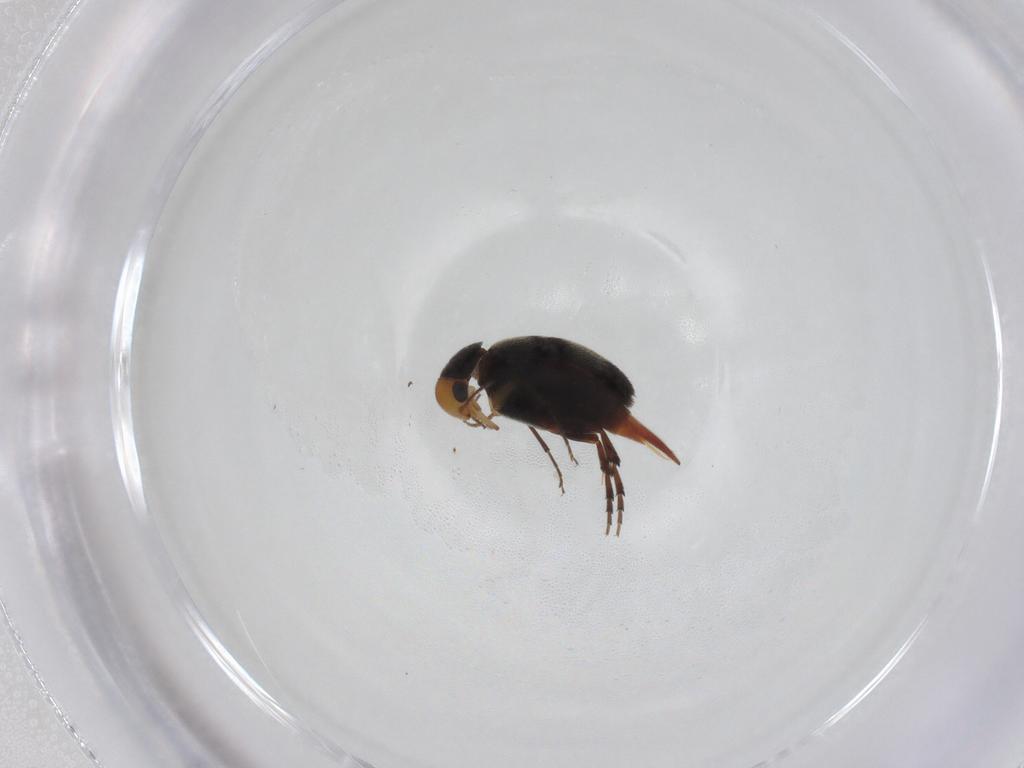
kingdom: Animalia
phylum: Arthropoda
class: Insecta
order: Coleoptera
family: Mordellidae
